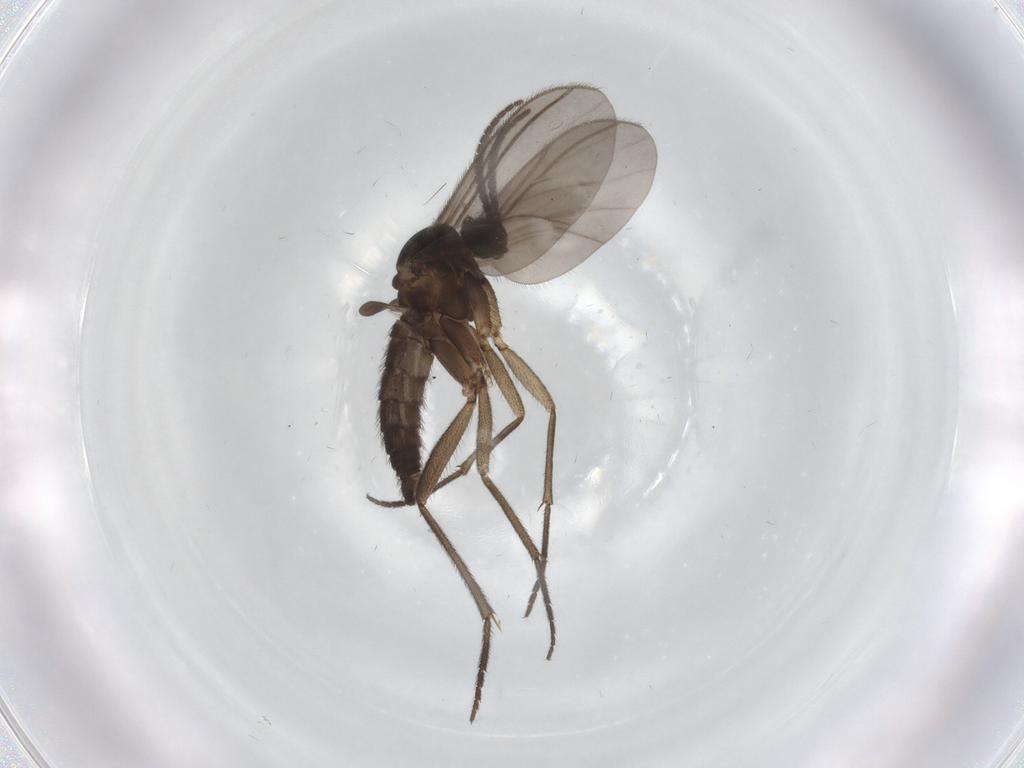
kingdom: Animalia
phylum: Arthropoda
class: Insecta
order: Diptera
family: Sciaridae
